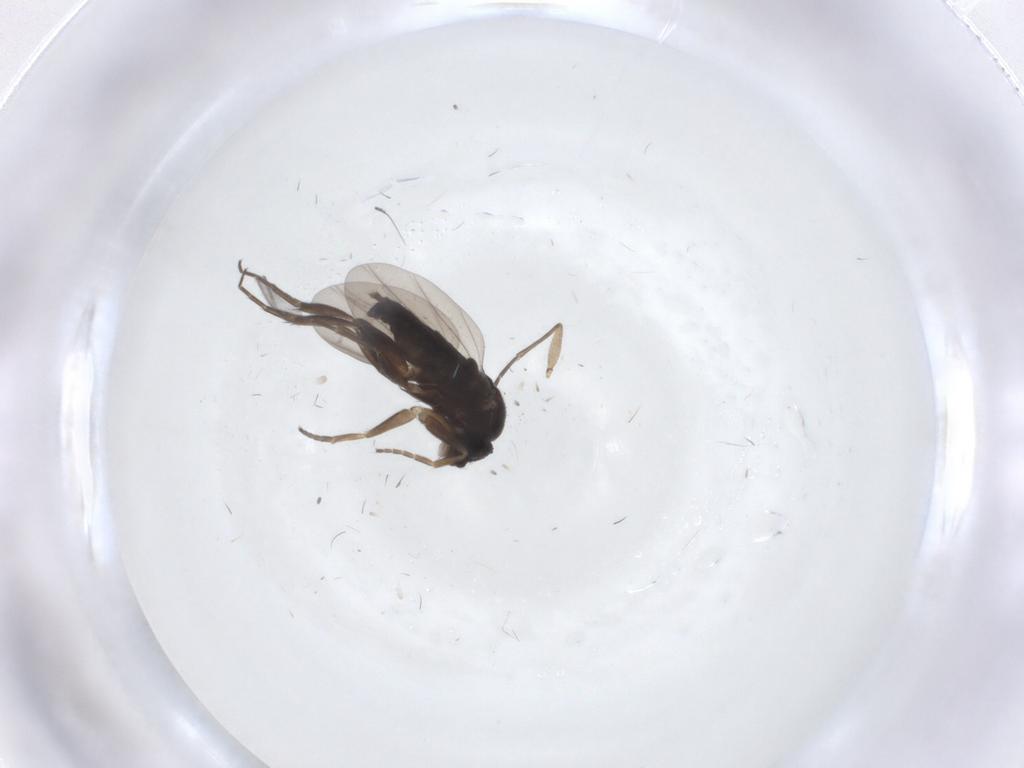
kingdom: Animalia
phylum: Arthropoda
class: Insecta
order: Diptera
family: Phoridae
